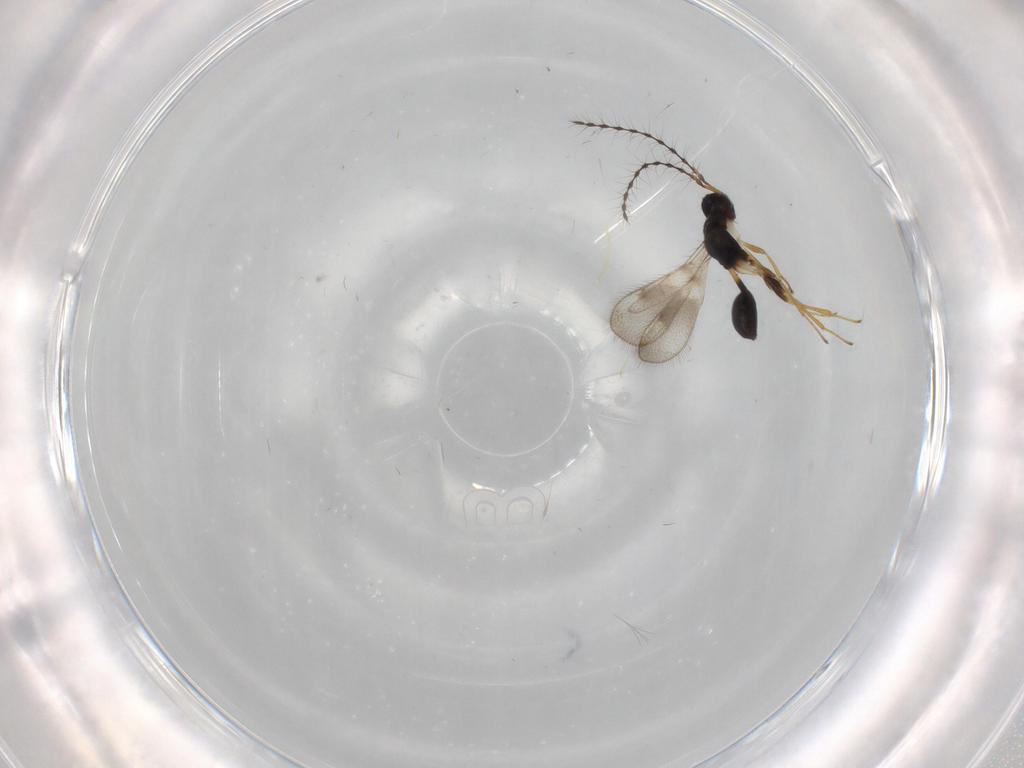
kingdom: Animalia
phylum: Arthropoda
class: Insecta
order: Hymenoptera
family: Diparidae
